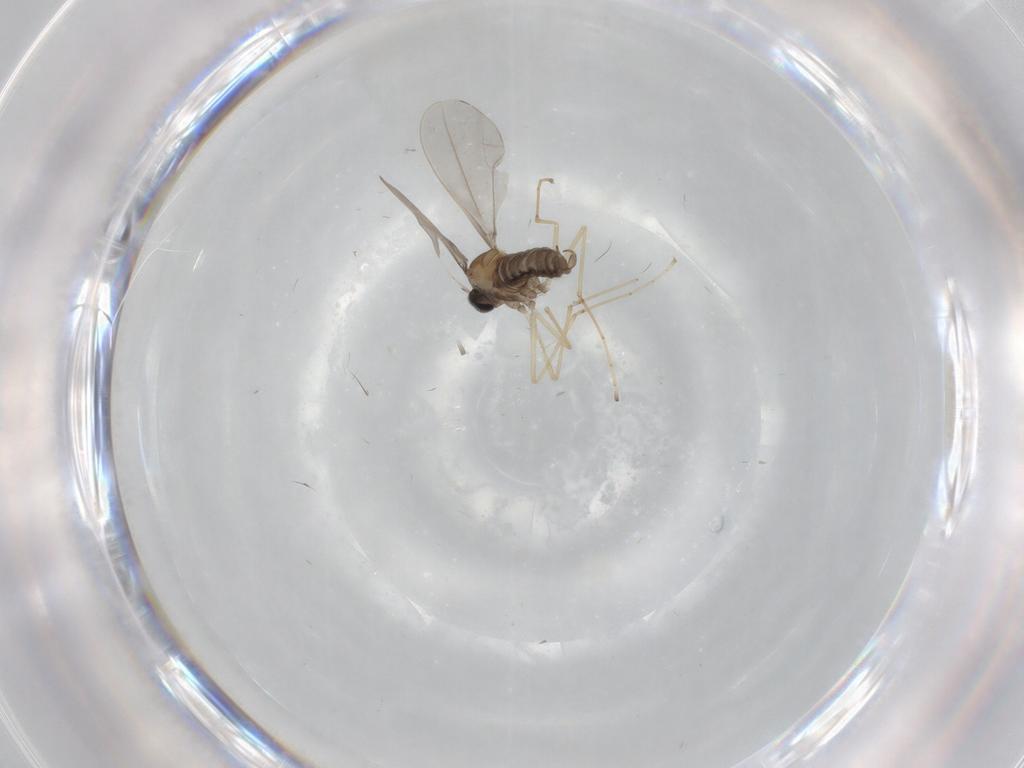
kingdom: Animalia
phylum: Arthropoda
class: Insecta
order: Diptera
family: Cecidomyiidae
